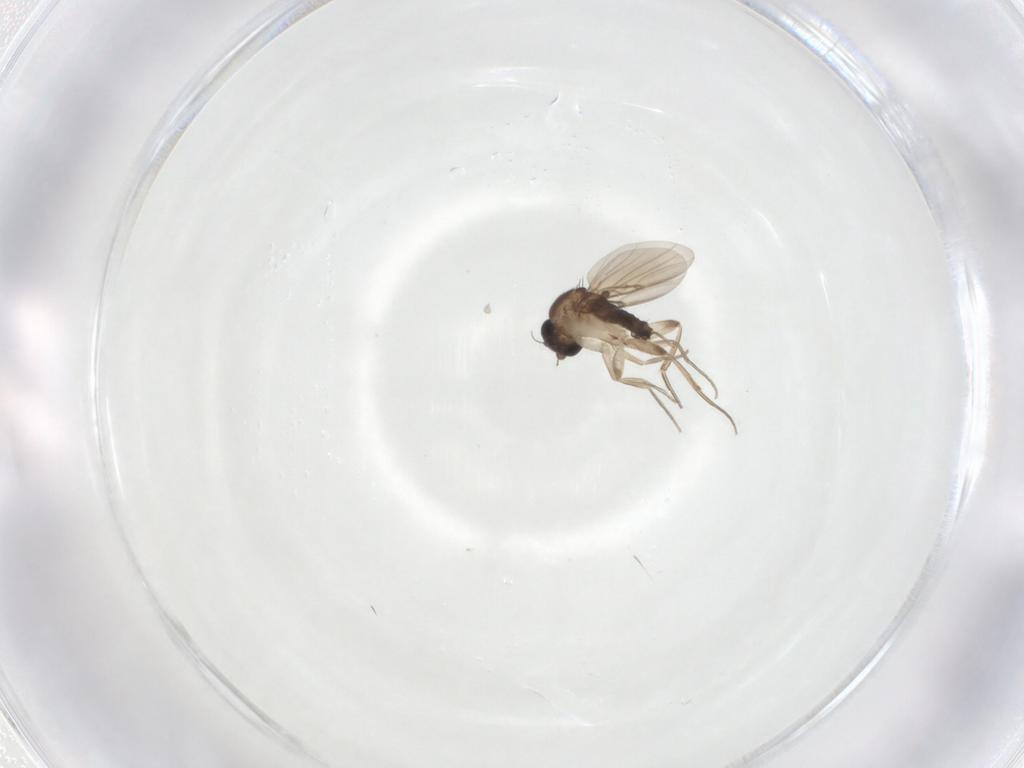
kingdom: Animalia
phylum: Arthropoda
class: Insecta
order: Diptera
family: Phoridae
